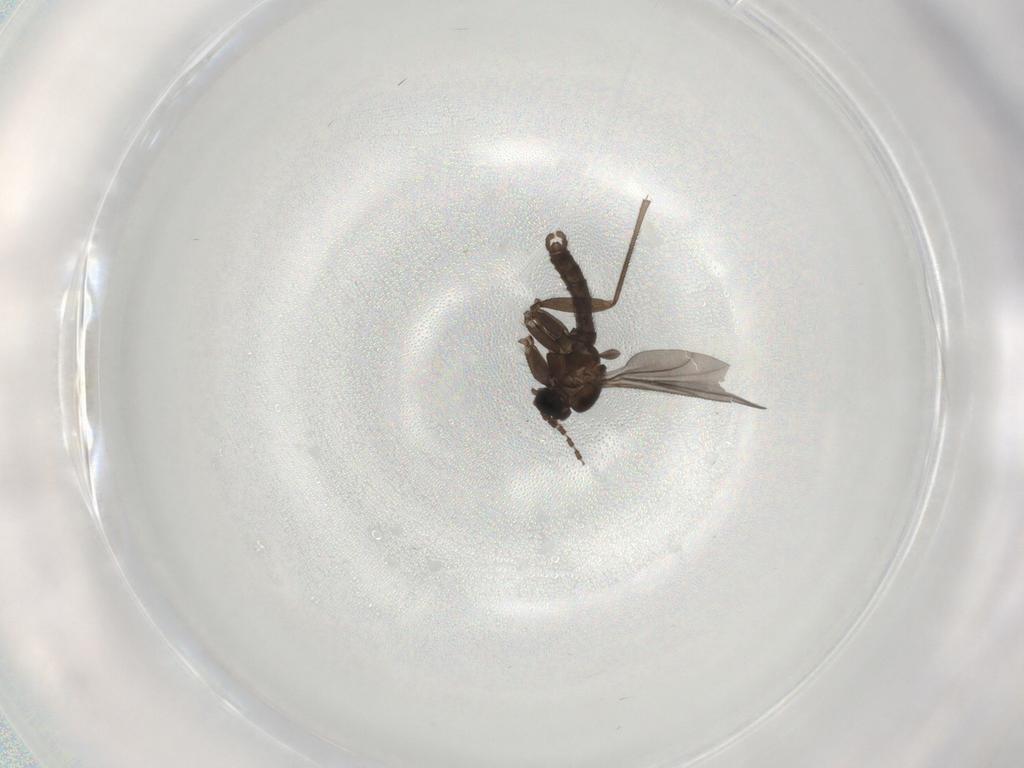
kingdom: Animalia
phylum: Arthropoda
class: Insecta
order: Diptera
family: Sciaridae
